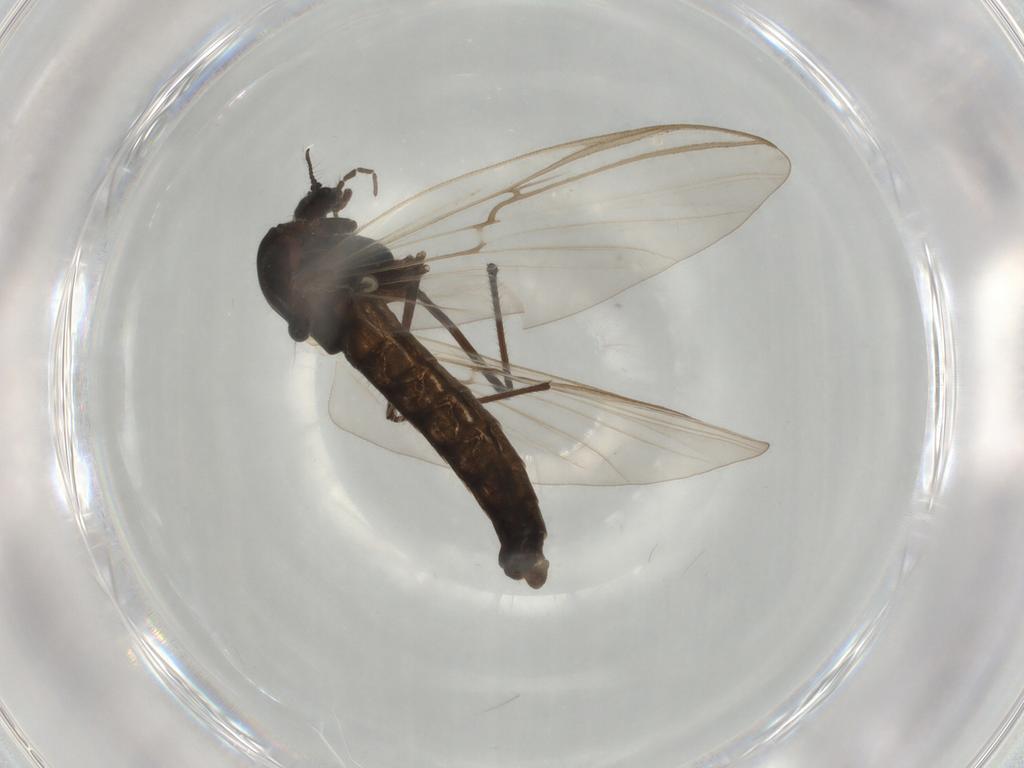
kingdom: Animalia
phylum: Arthropoda
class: Insecta
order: Diptera
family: Sciaridae
